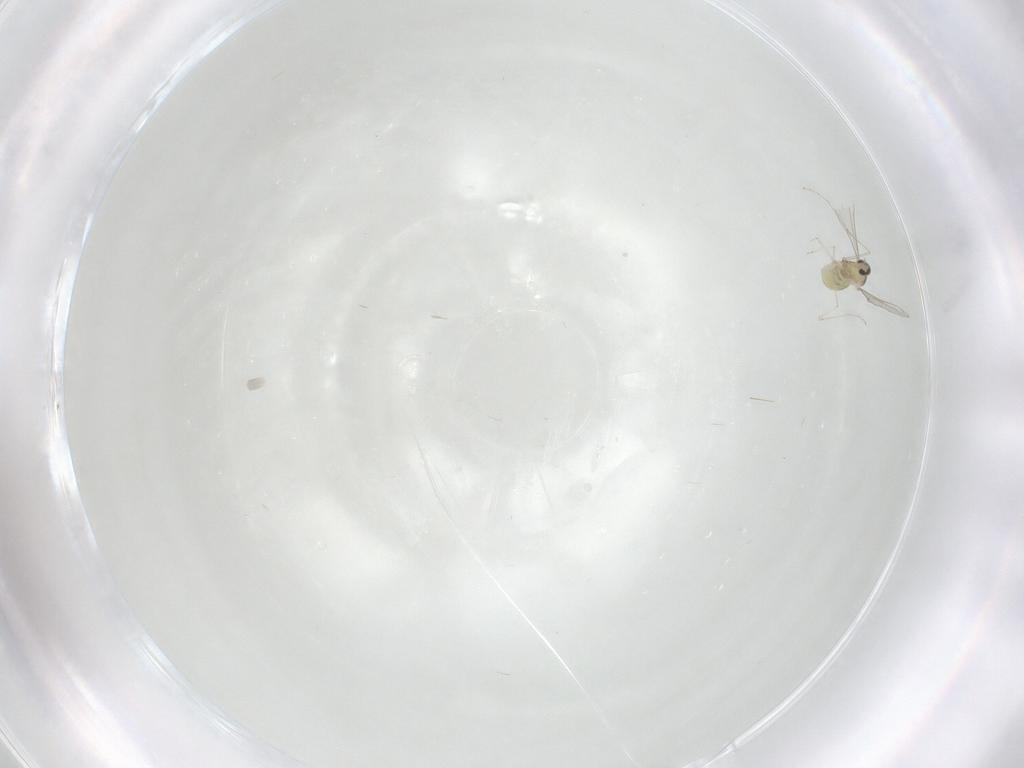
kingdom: Animalia
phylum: Arthropoda
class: Insecta
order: Diptera
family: Cecidomyiidae
